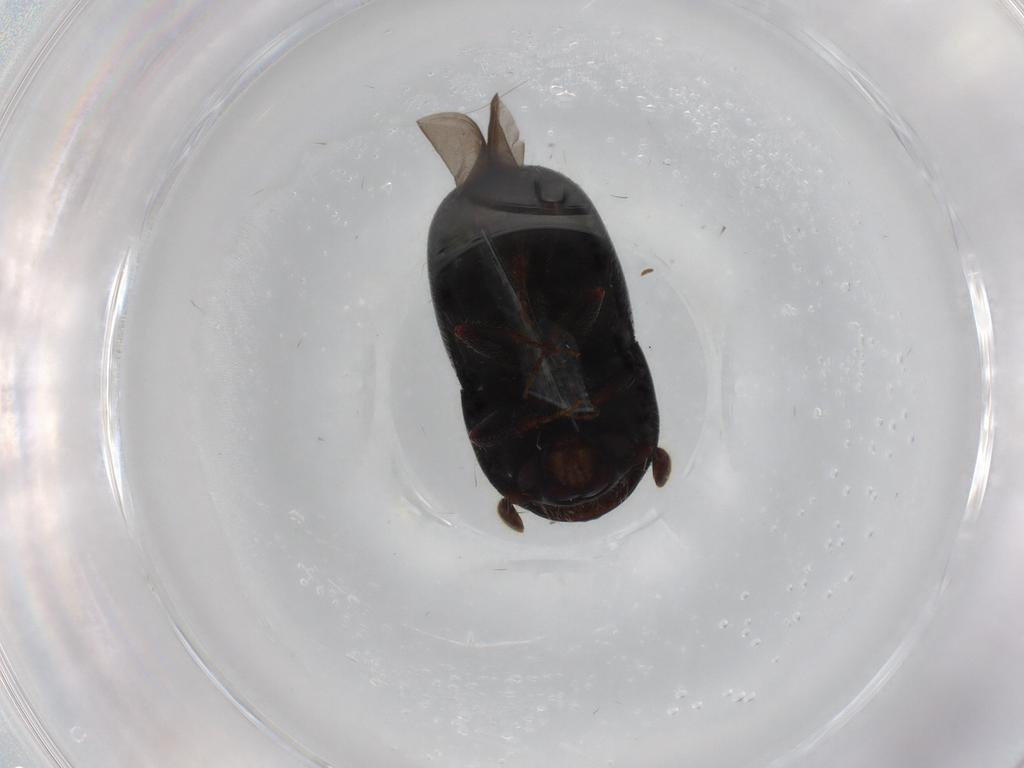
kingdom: Animalia
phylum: Arthropoda
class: Insecta
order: Coleoptera
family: Curculionidae
